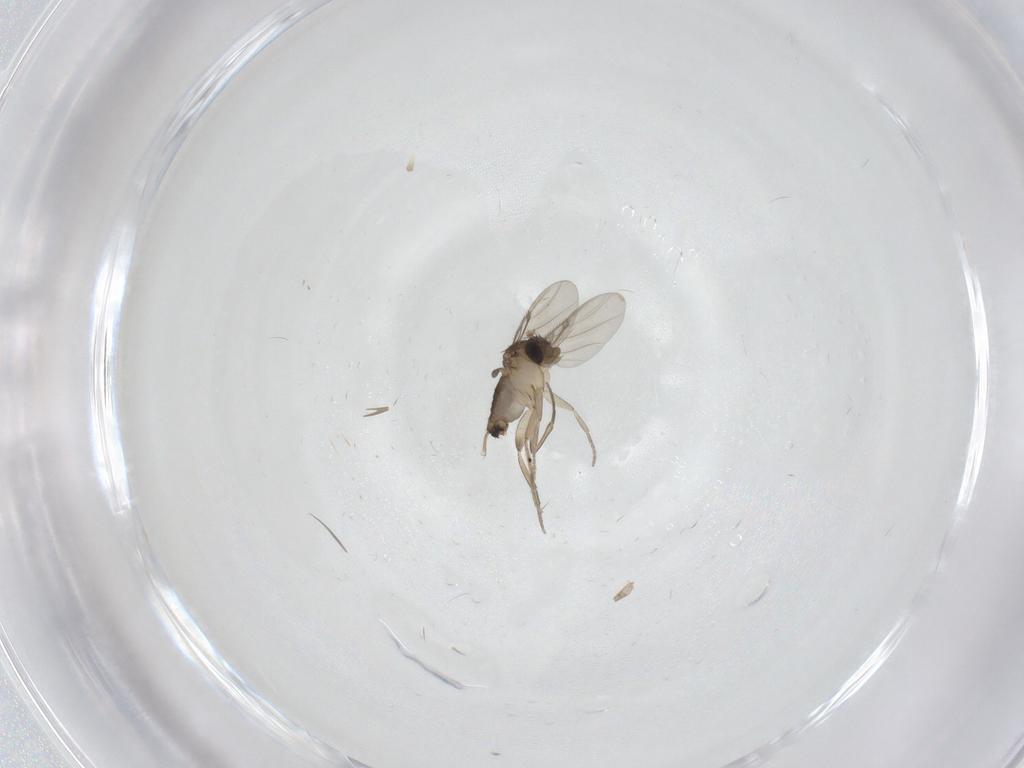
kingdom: Animalia
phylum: Arthropoda
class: Insecta
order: Diptera
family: Phoridae
